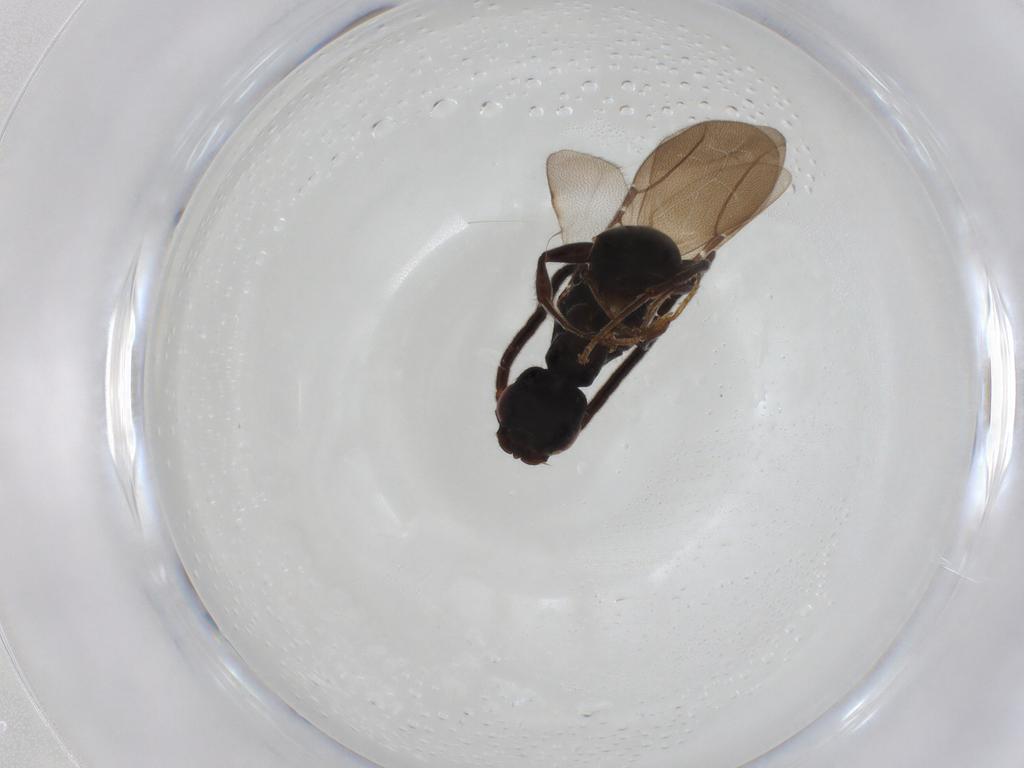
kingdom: Animalia
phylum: Arthropoda
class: Insecta
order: Hymenoptera
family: Bethylidae
